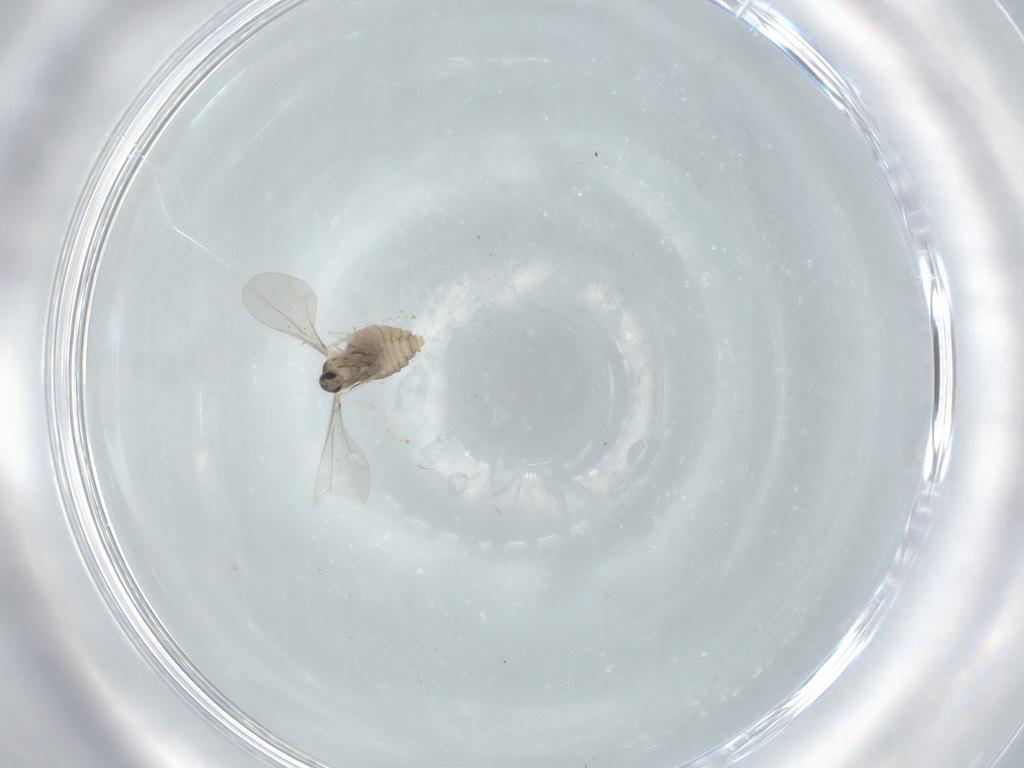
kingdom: Animalia
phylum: Arthropoda
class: Insecta
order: Diptera
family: Cecidomyiidae
